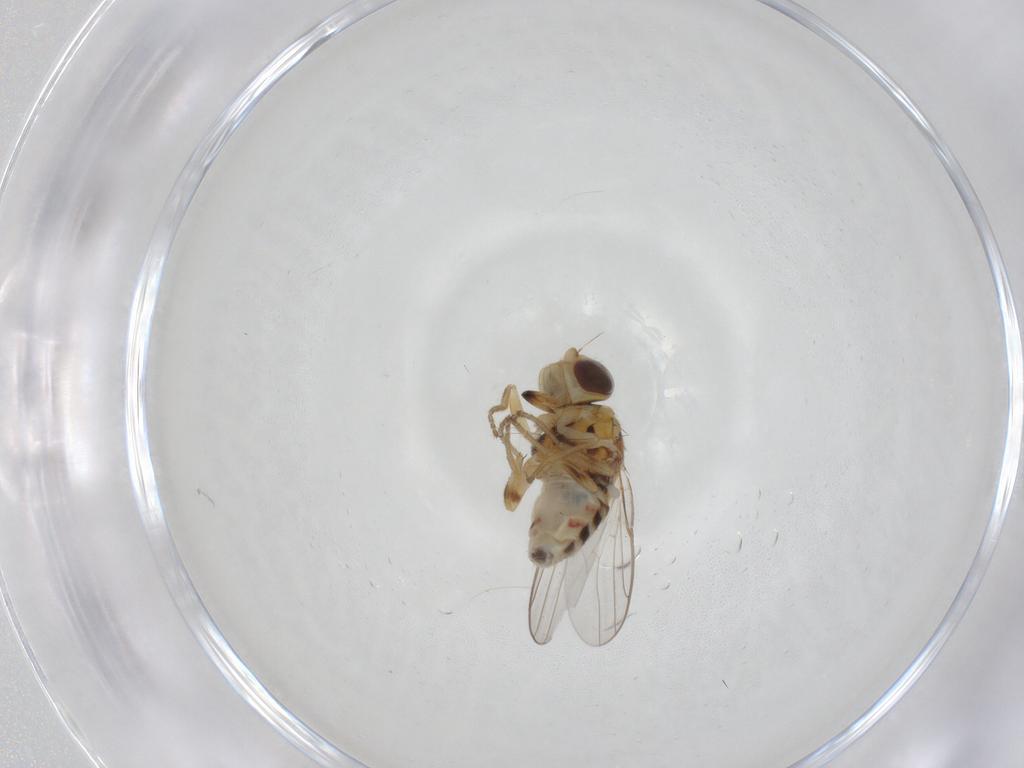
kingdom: Animalia
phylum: Arthropoda
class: Insecta
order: Diptera
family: Chloropidae
